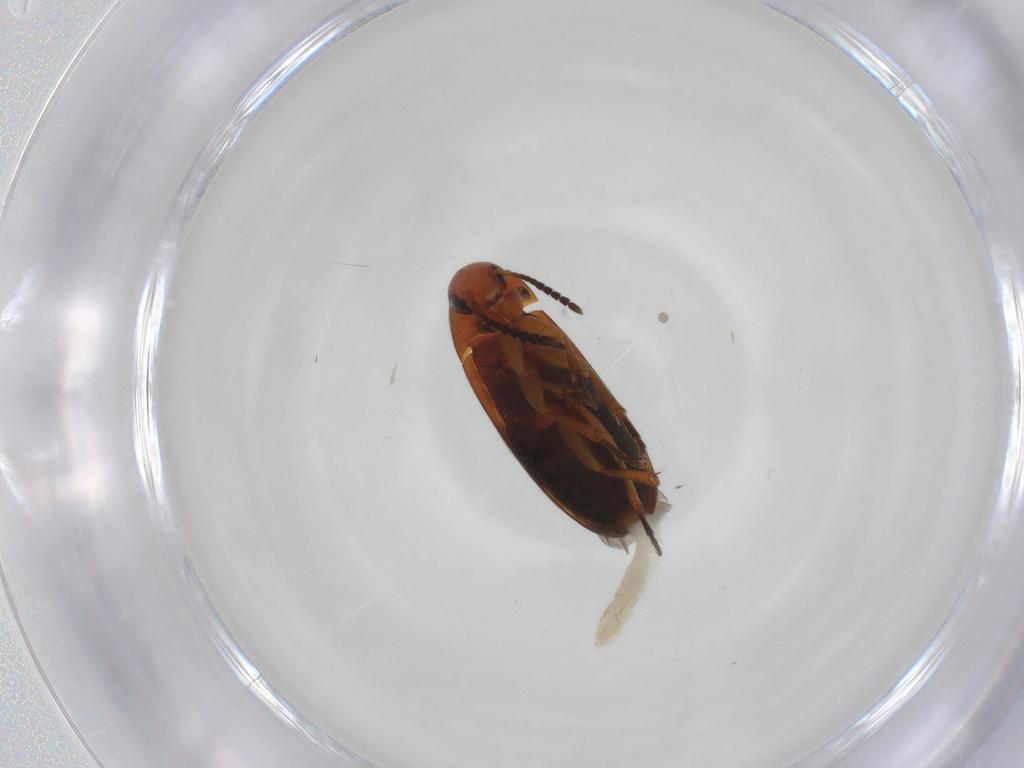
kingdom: Animalia
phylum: Arthropoda
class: Insecta
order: Coleoptera
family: Scraptiidae
